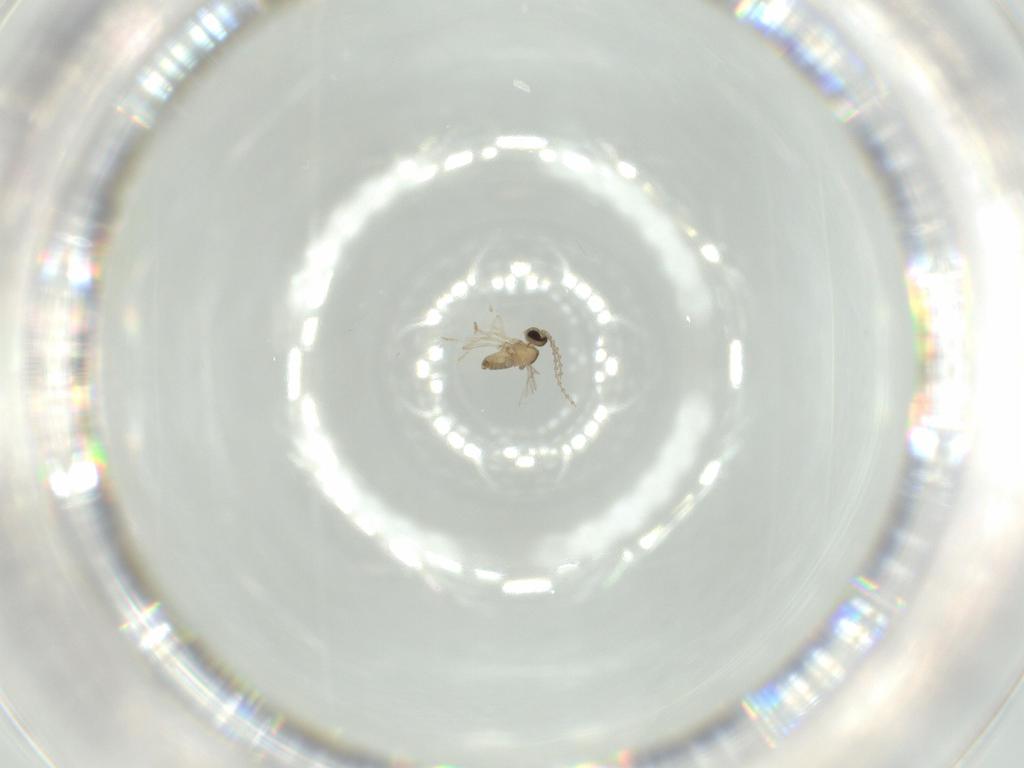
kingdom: Animalia
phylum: Arthropoda
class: Insecta
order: Diptera
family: Cecidomyiidae
